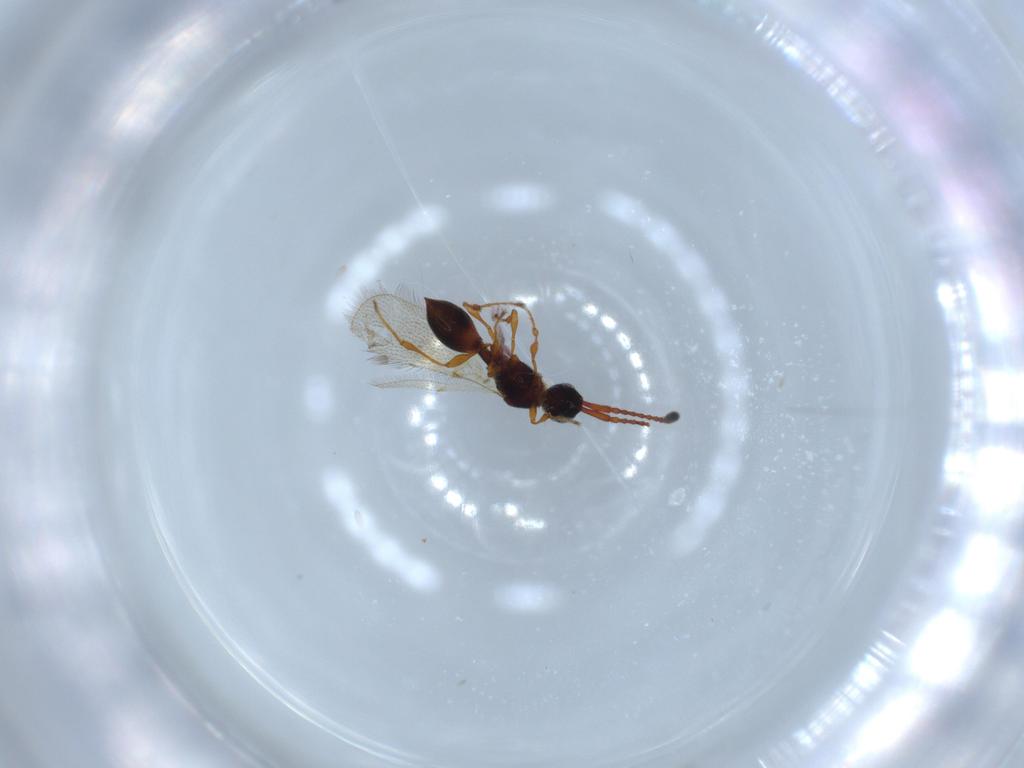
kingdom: Animalia
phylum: Arthropoda
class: Insecta
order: Hymenoptera
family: Diapriidae
